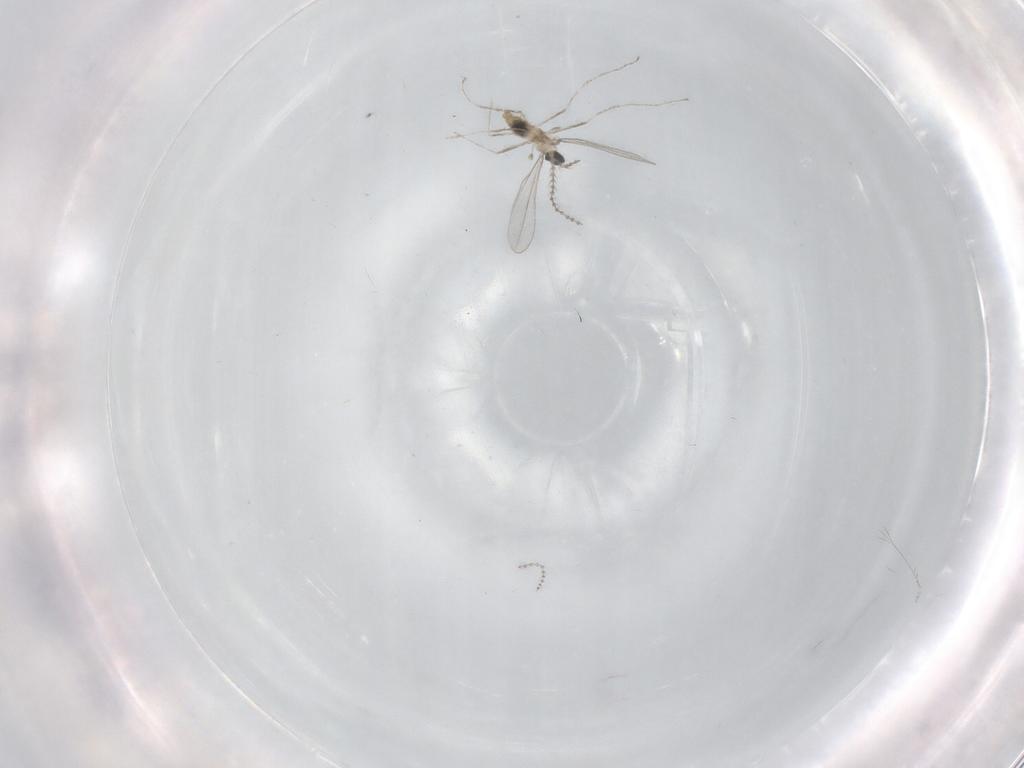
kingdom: Animalia
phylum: Arthropoda
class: Insecta
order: Diptera
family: Cecidomyiidae
